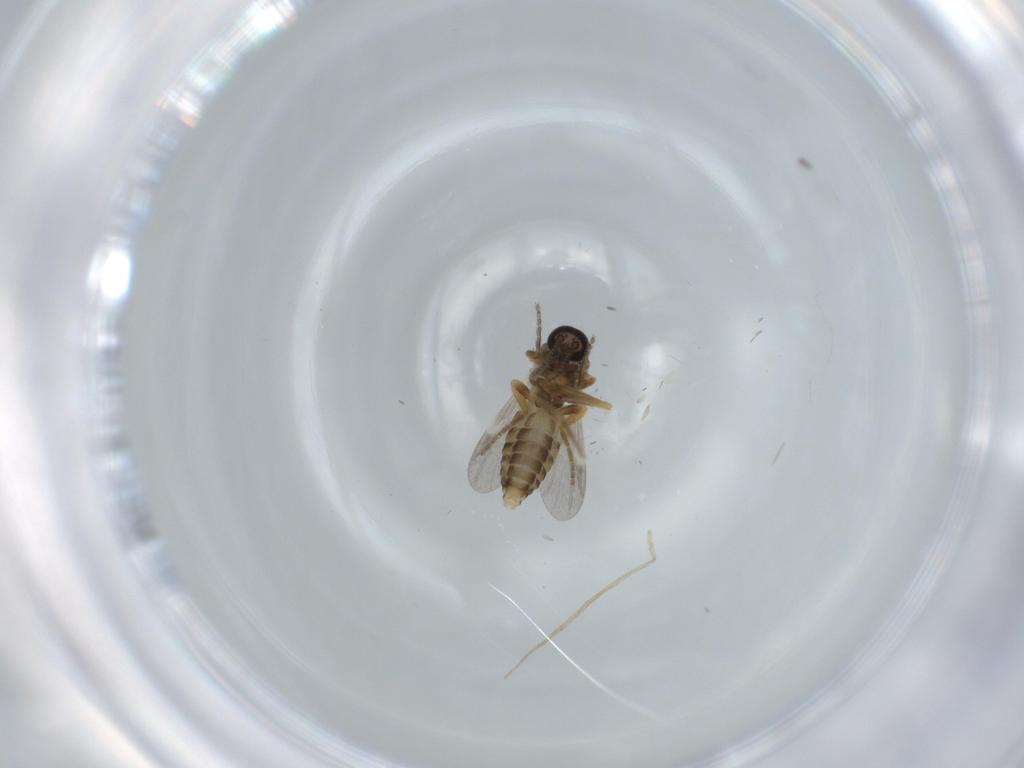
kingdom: Animalia
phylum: Arthropoda
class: Insecta
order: Diptera
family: Ceratopogonidae
